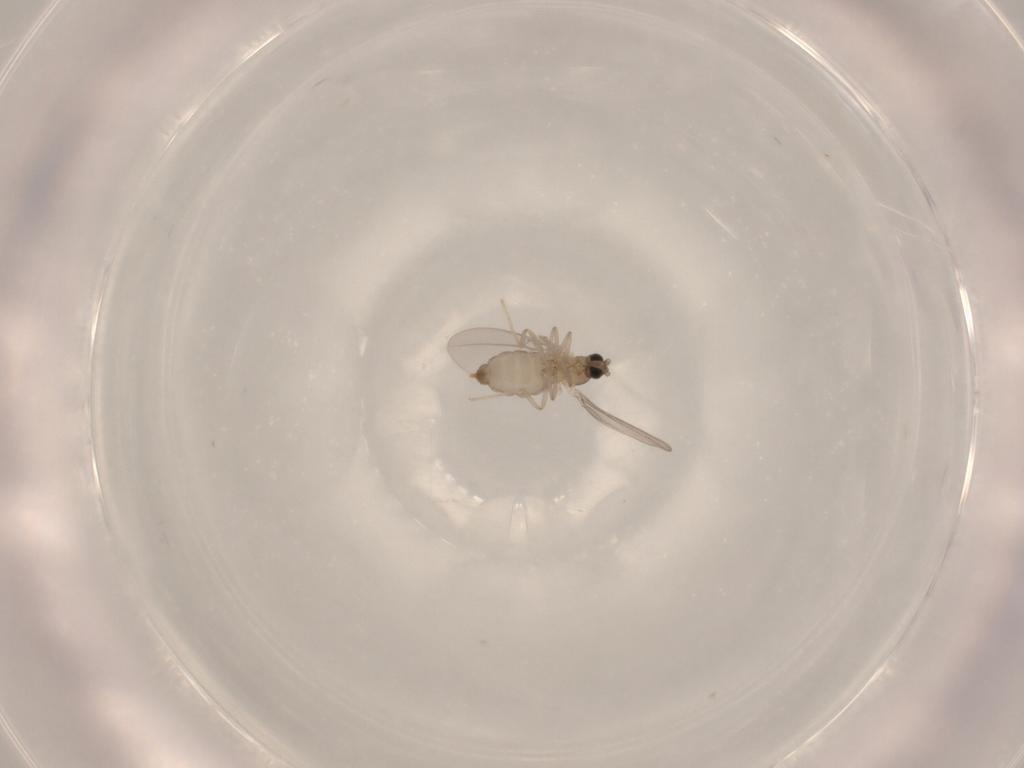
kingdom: Animalia
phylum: Arthropoda
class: Insecta
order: Diptera
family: Cecidomyiidae
